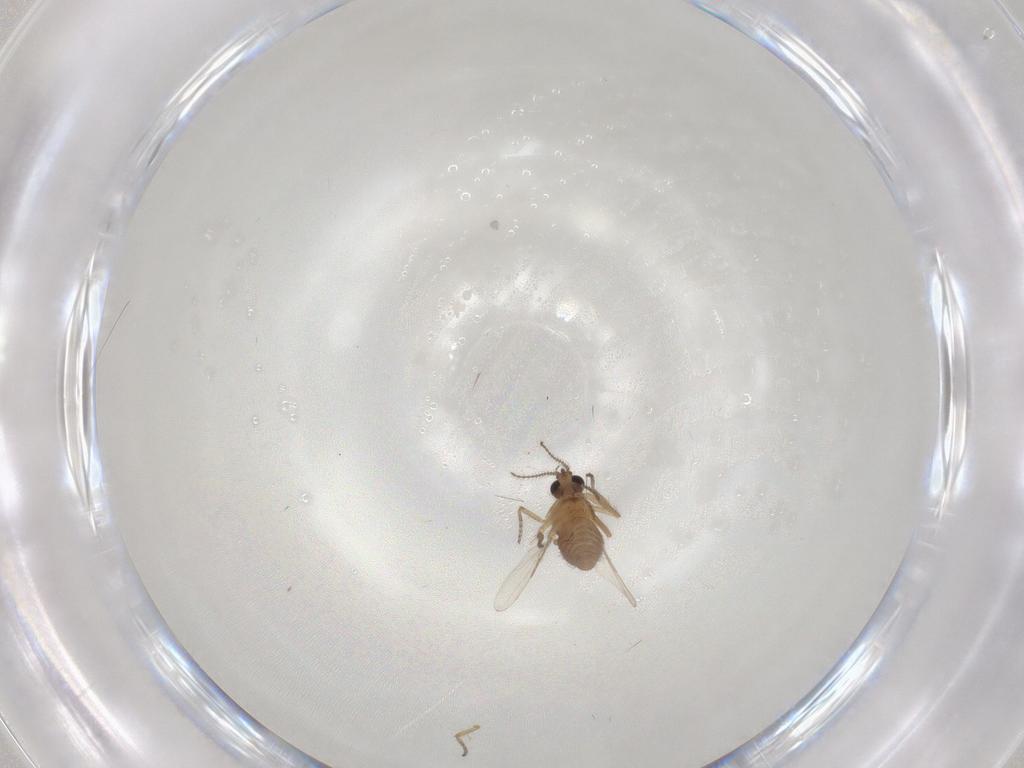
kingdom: Animalia
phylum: Arthropoda
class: Insecta
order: Diptera
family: Ceratopogonidae
